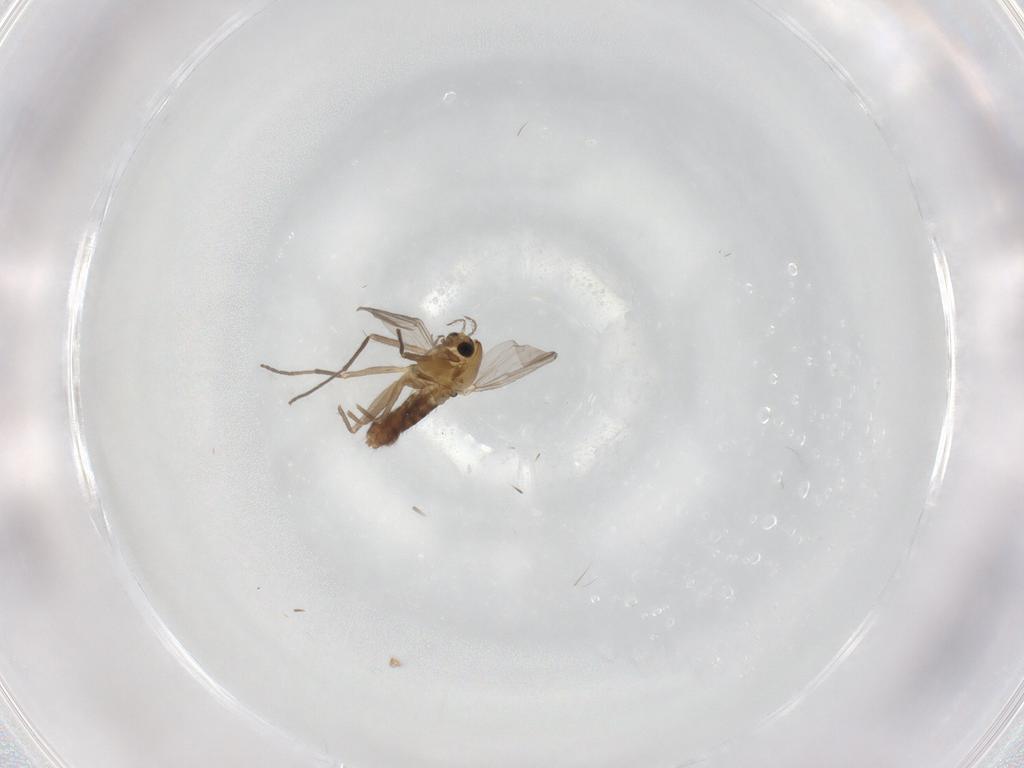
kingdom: Animalia
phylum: Arthropoda
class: Insecta
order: Diptera
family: Chironomidae
